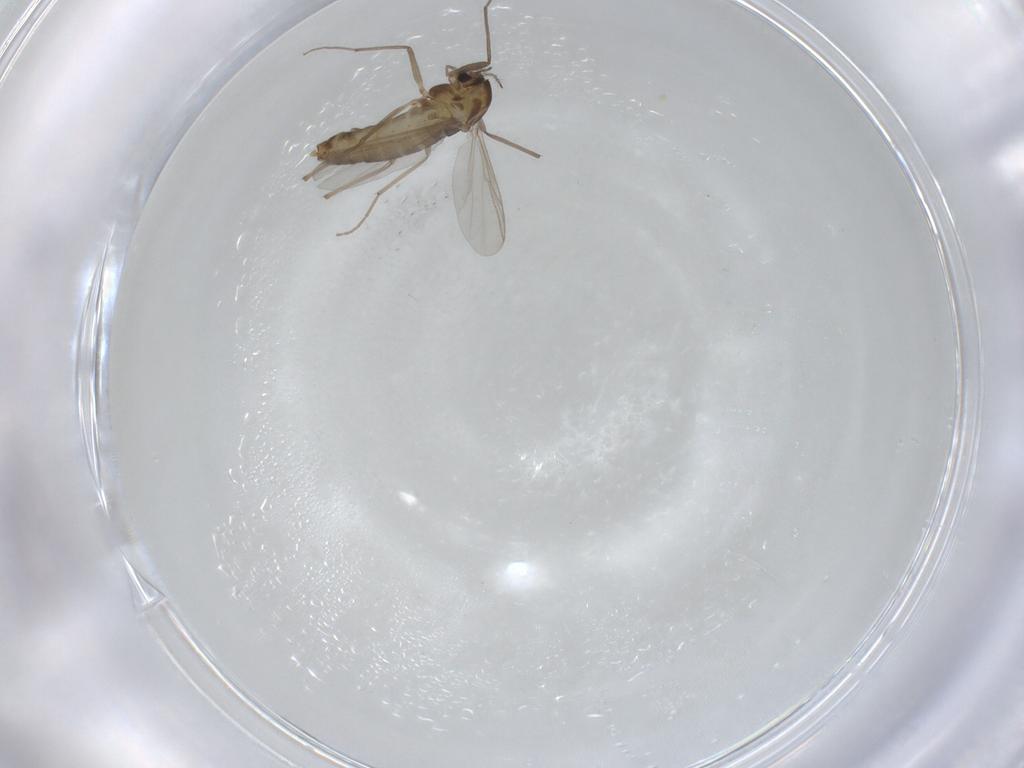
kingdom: Animalia
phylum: Arthropoda
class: Insecta
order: Diptera
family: Chironomidae
